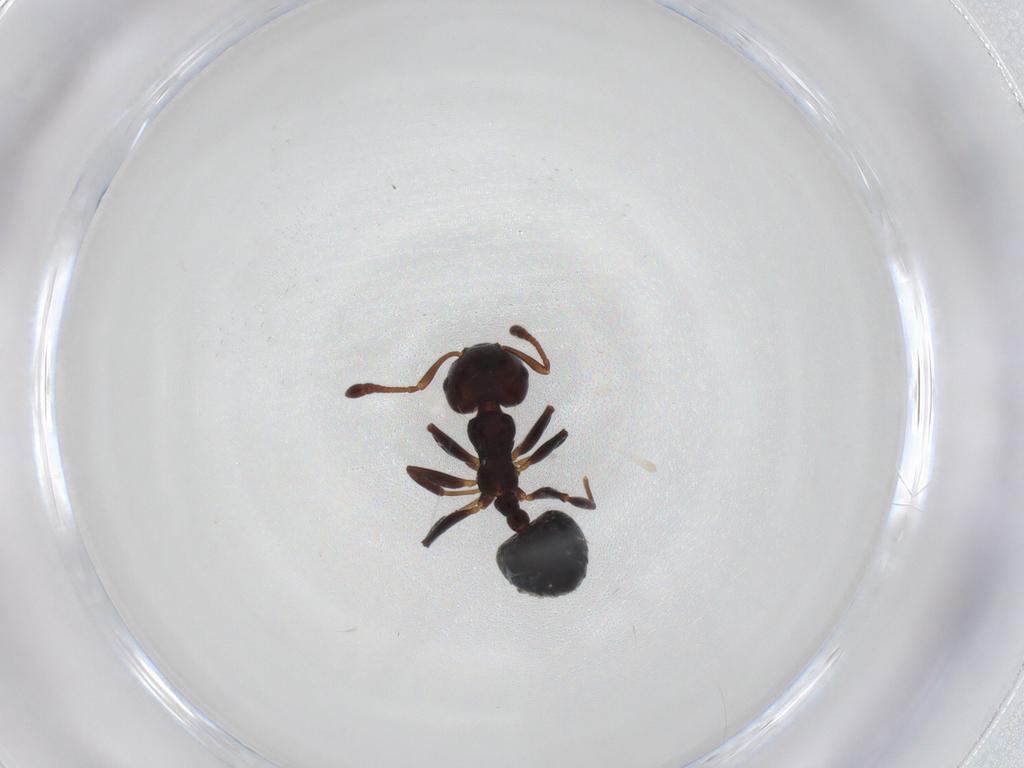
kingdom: Animalia
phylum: Arthropoda
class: Insecta
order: Hymenoptera
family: Formicidae
